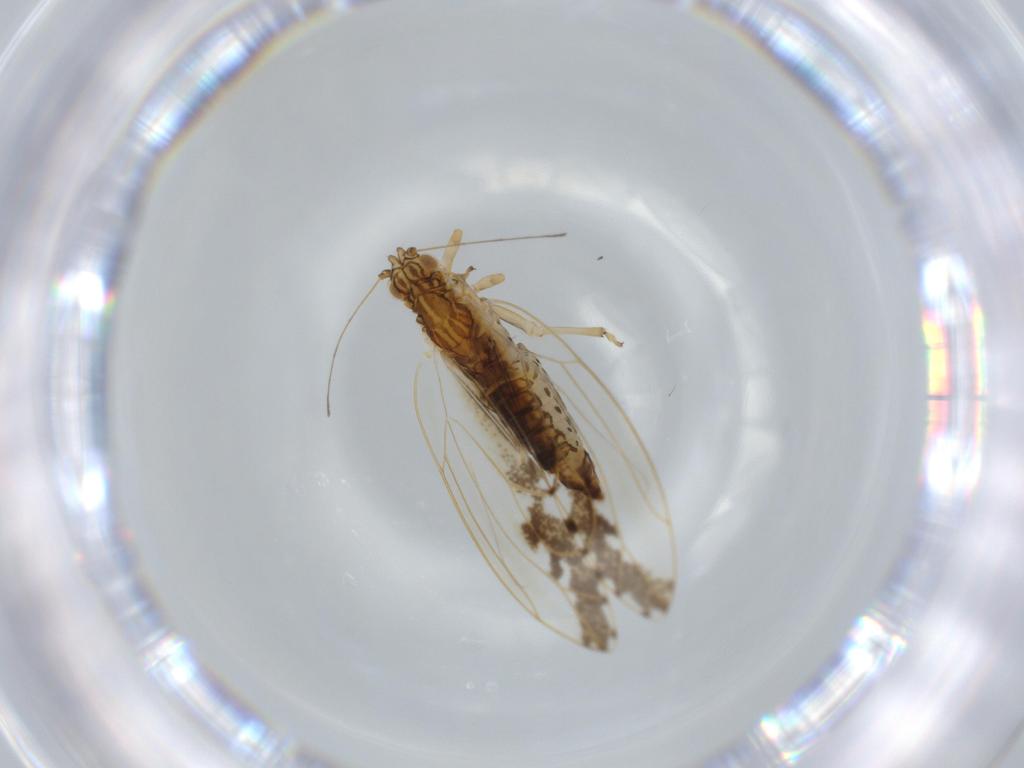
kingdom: Animalia
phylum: Arthropoda
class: Insecta
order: Hemiptera
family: Triozidae
